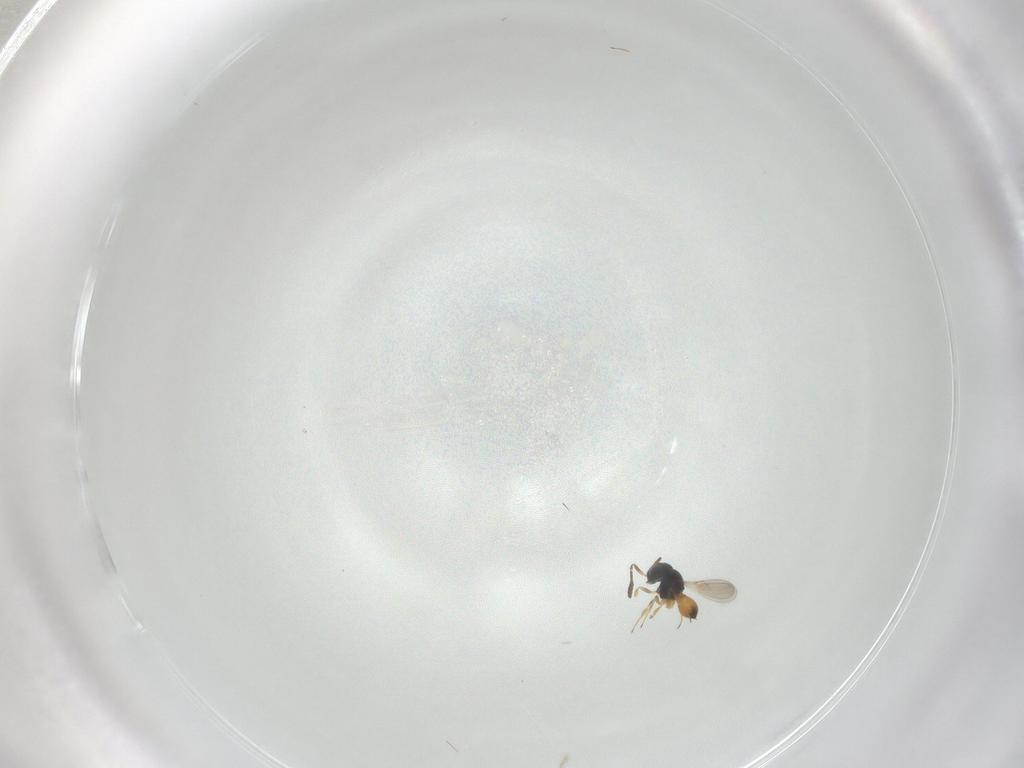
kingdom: Animalia
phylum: Arthropoda
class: Insecta
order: Hymenoptera
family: Scelionidae
